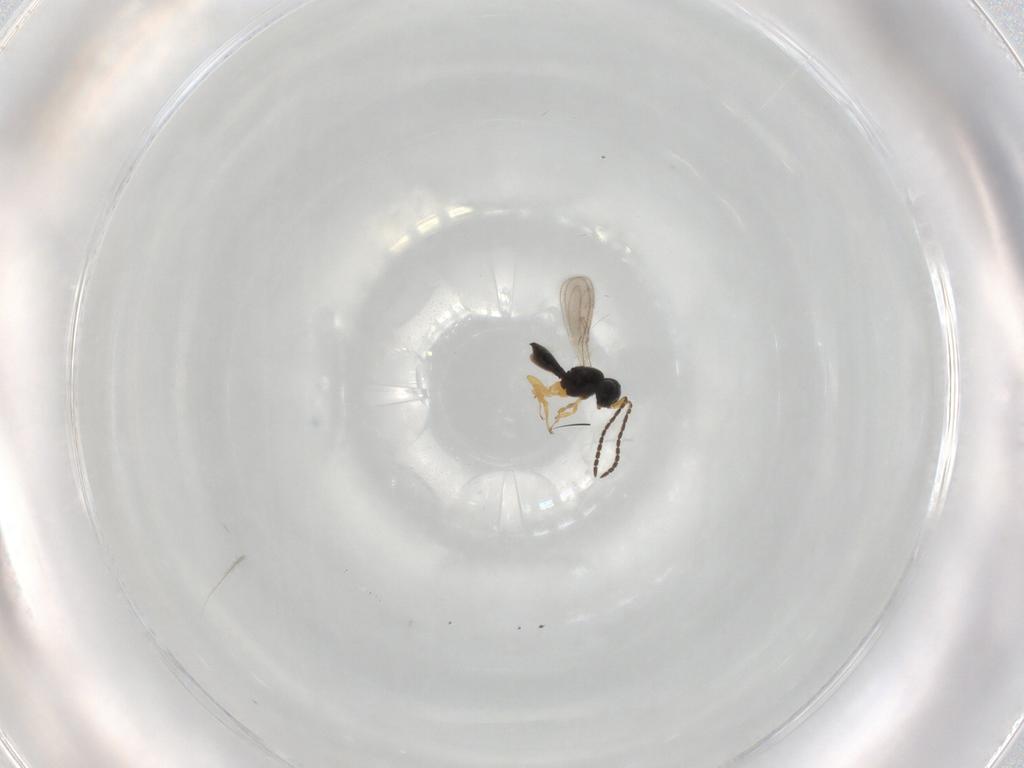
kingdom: Animalia
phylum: Arthropoda
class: Insecta
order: Hymenoptera
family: Scelionidae
